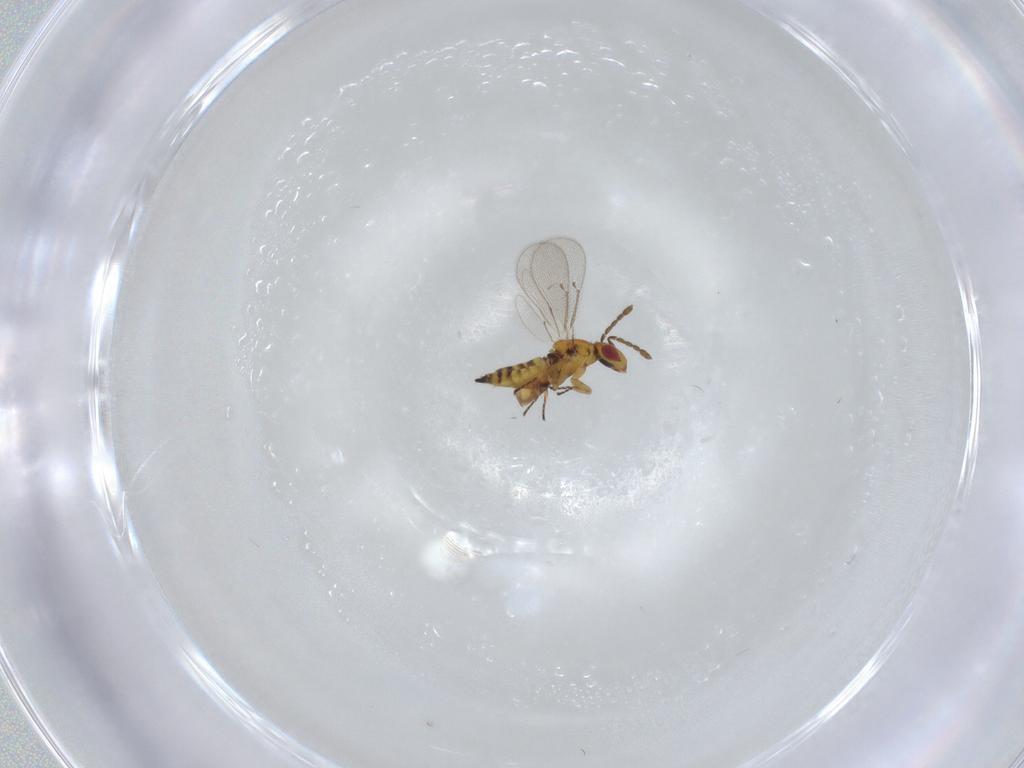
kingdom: Animalia
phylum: Arthropoda
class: Insecta
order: Hymenoptera
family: Eulophidae
